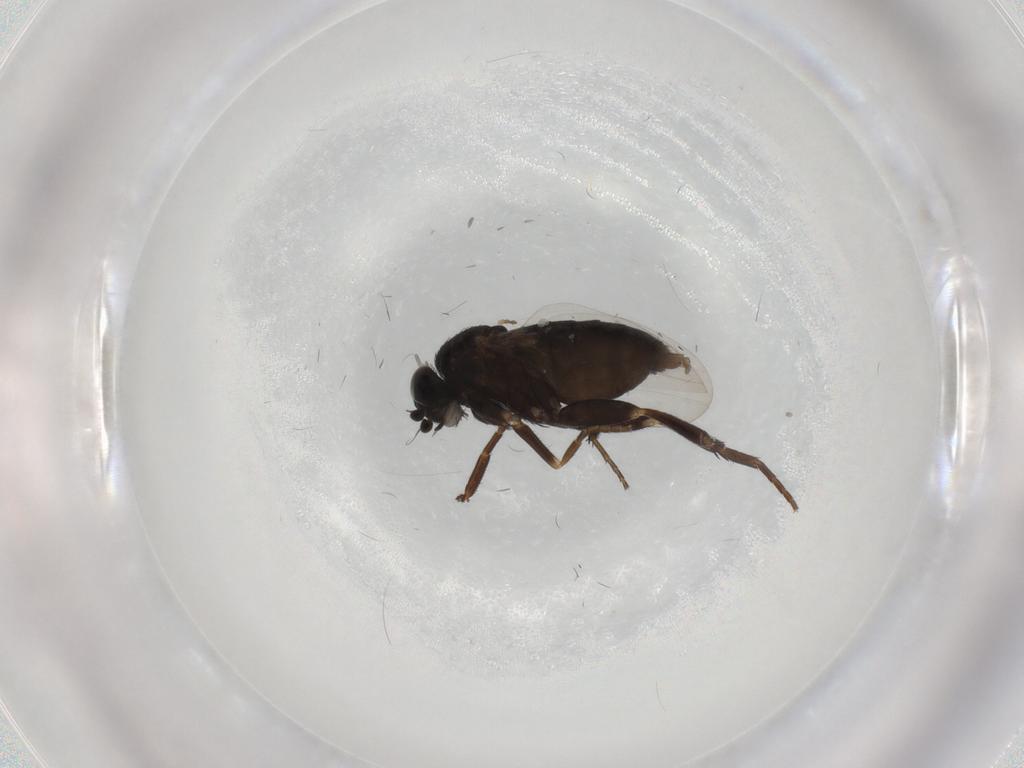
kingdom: Animalia
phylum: Arthropoda
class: Insecta
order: Diptera
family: Phoridae
